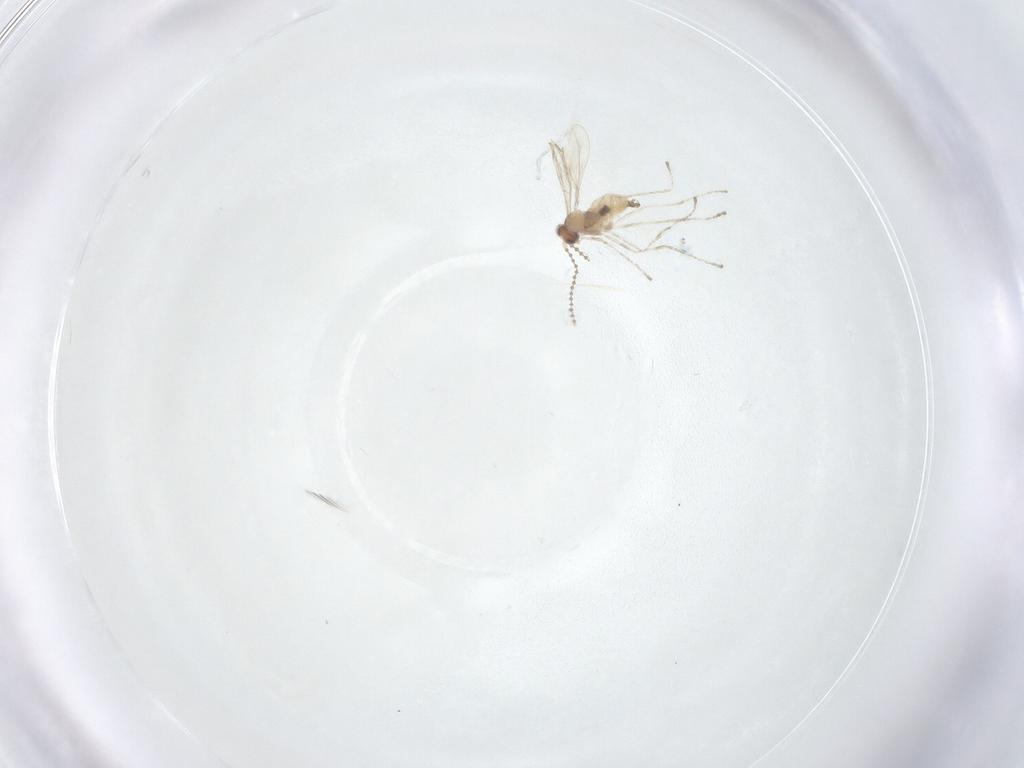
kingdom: Animalia
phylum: Arthropoda
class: Insecta
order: Diptera
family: Cecidomyiidae
